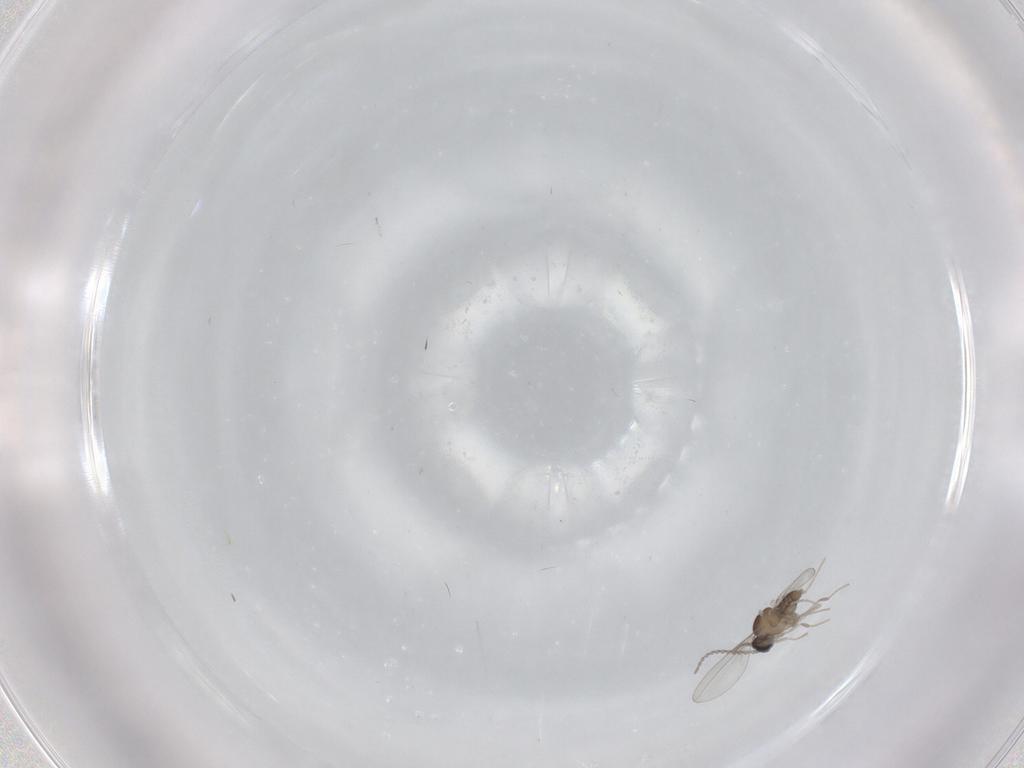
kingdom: Animalia
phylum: Arthropoda
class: Insecta
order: Diptera
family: Cecidomyiidae
